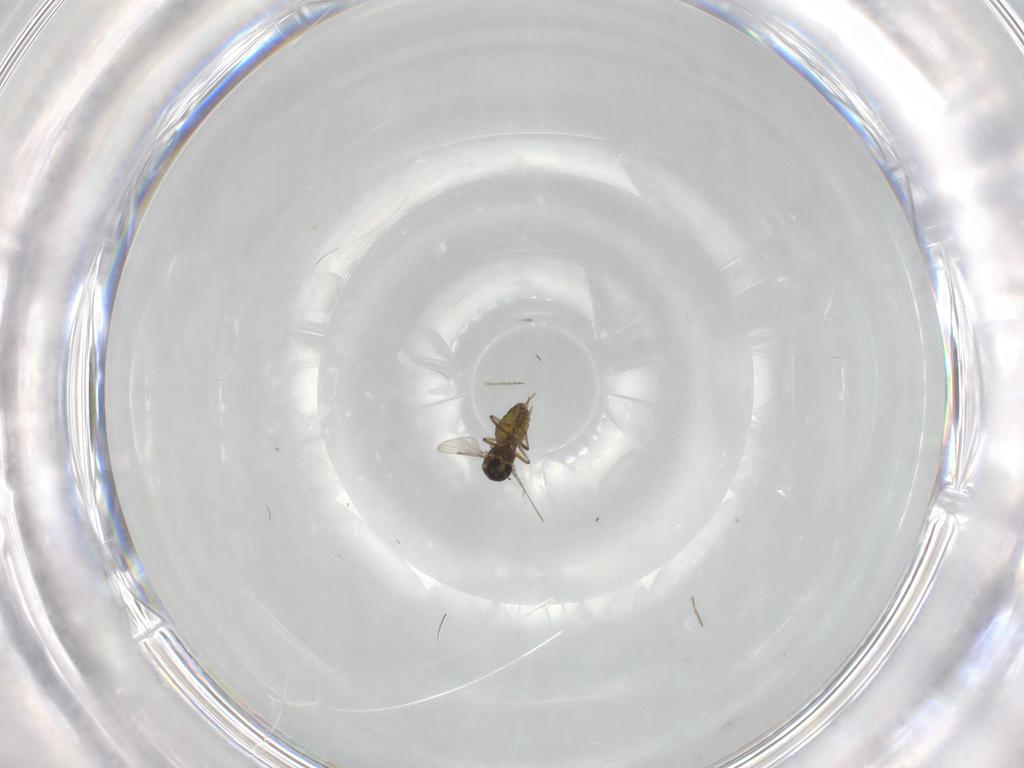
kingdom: Animalia
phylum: Arthropoda
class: Insecta
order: Diptera
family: Ceratopogonidae
